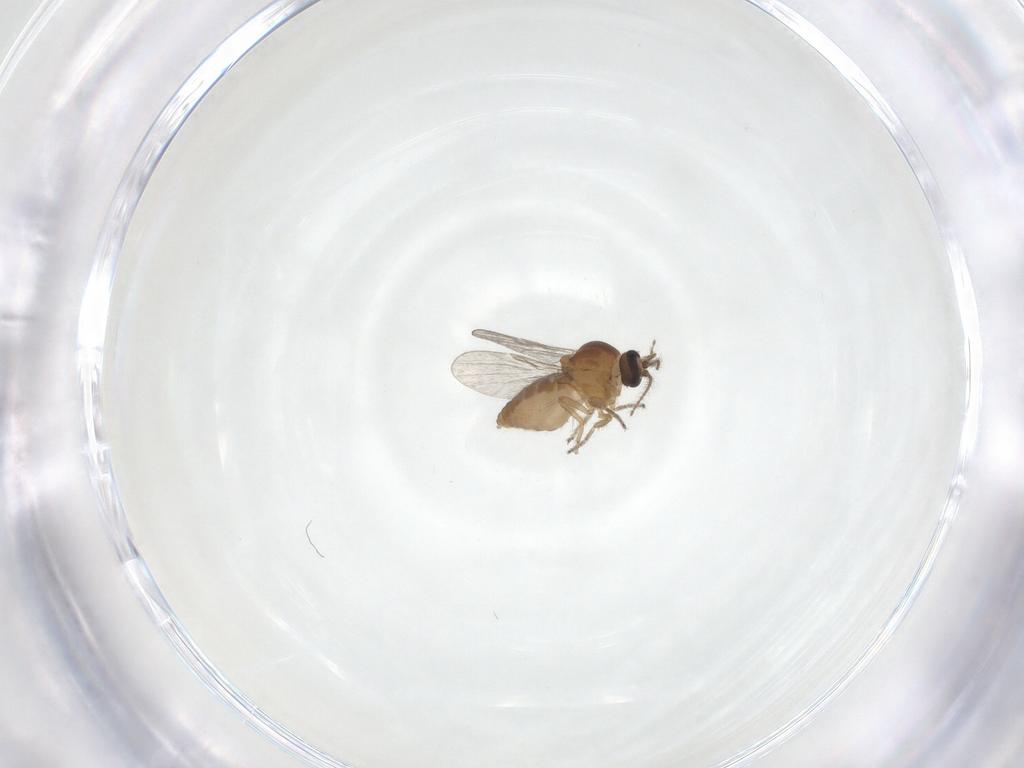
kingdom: Animalia
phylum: Arthropoda
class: Insecta
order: Diptera
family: Ceratopogonidae
